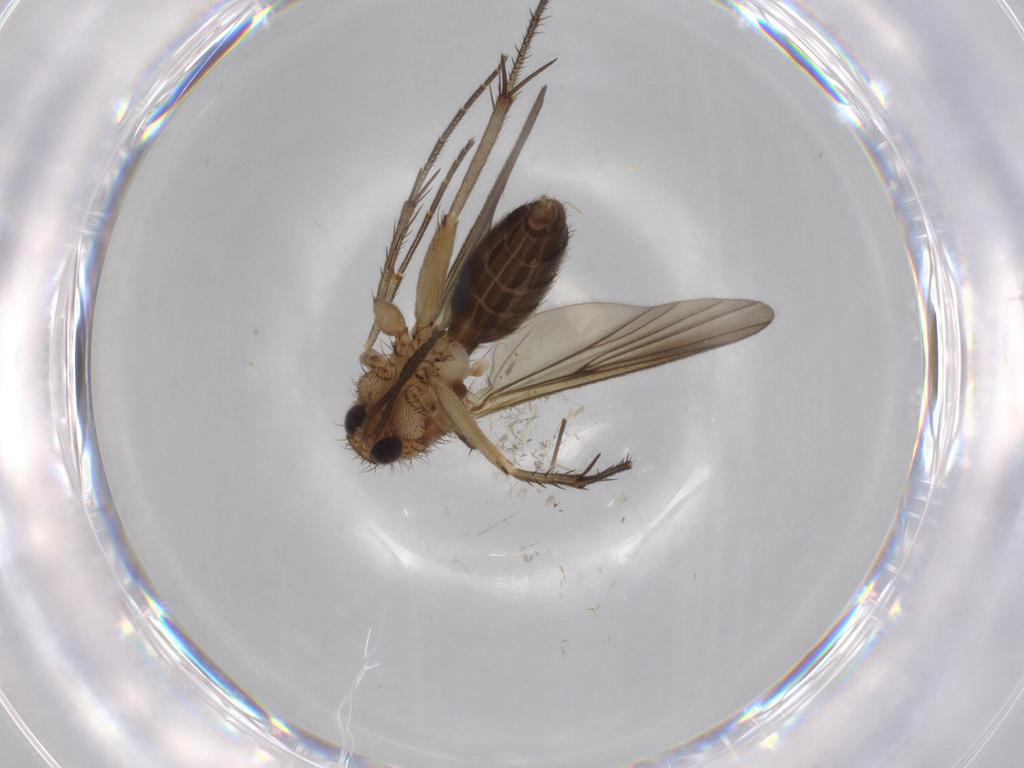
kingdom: Animalia
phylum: Arthropoda
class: Insecta
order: Diptera
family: Mycetophilidae
